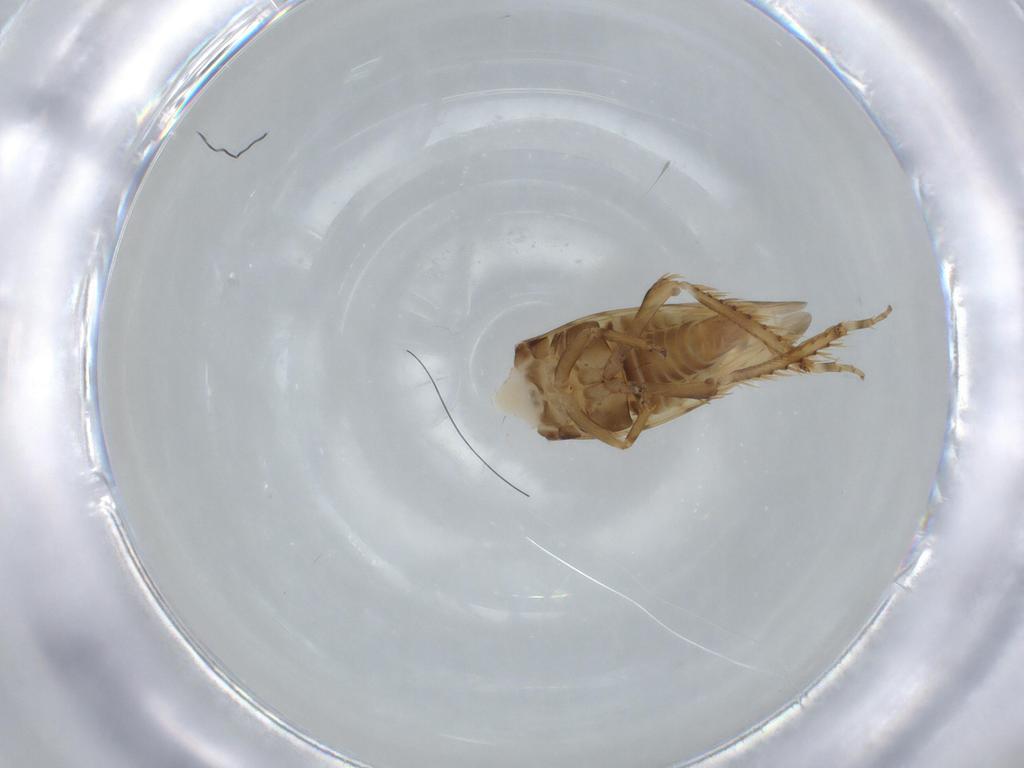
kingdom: Animalia
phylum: Arthropoda
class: Insecta
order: Hemiptera
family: Cicadellidae
